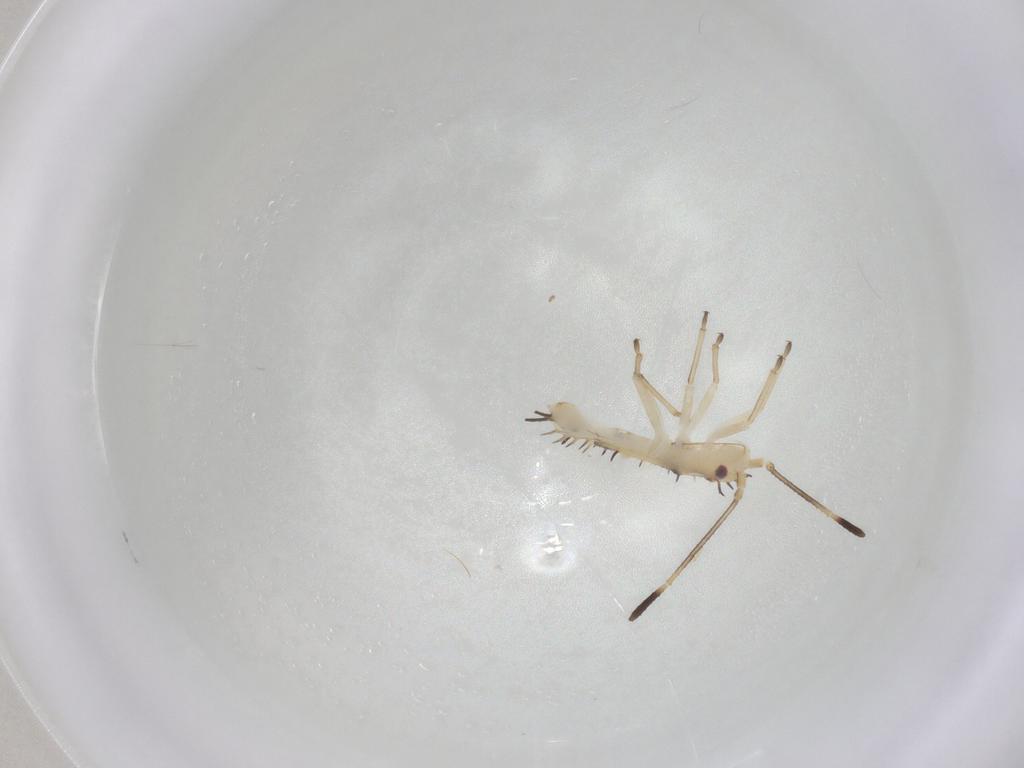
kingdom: Animalia
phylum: Arthropoda
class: Insecta
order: Hemiptera
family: Tingidae
